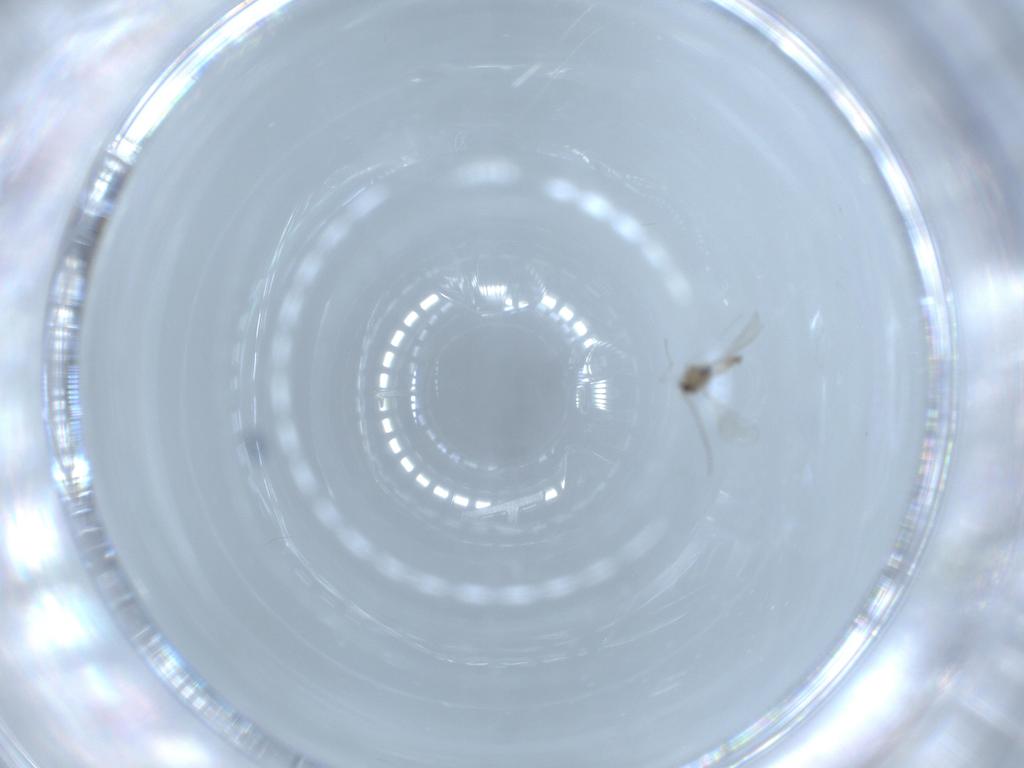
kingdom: Animalia
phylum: Arthropoda
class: Insecta
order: Diptera
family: Cecidomyiidae
